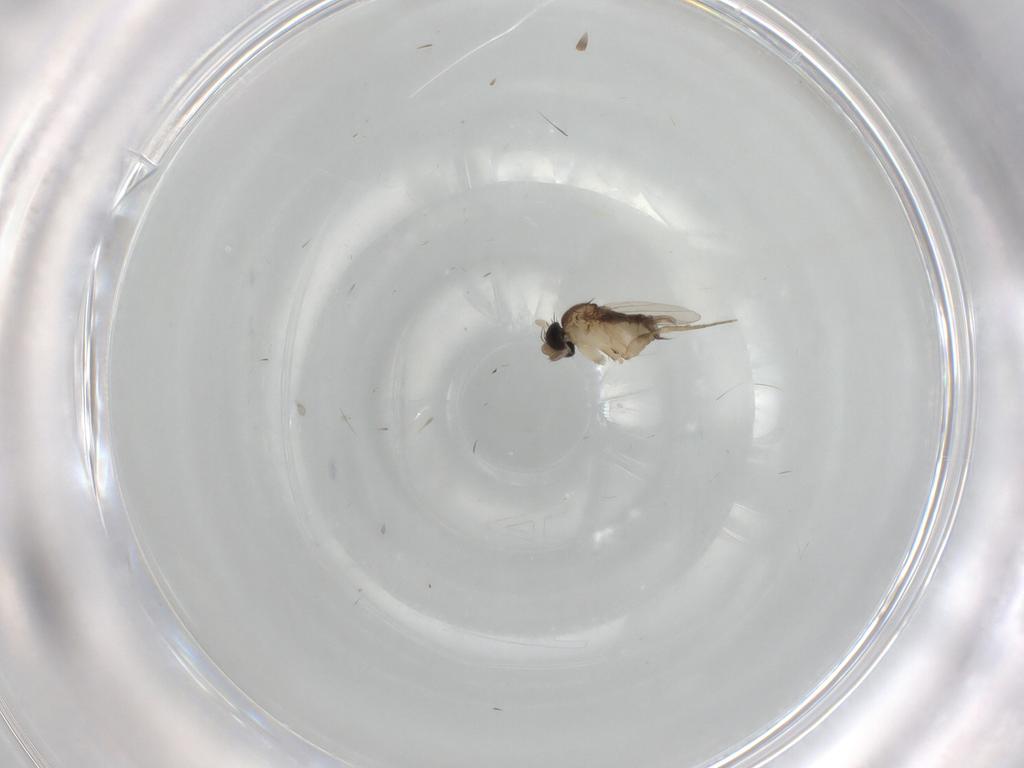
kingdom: Animalia
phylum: Arthropoda
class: Insecta
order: Diptera
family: Phoridae
